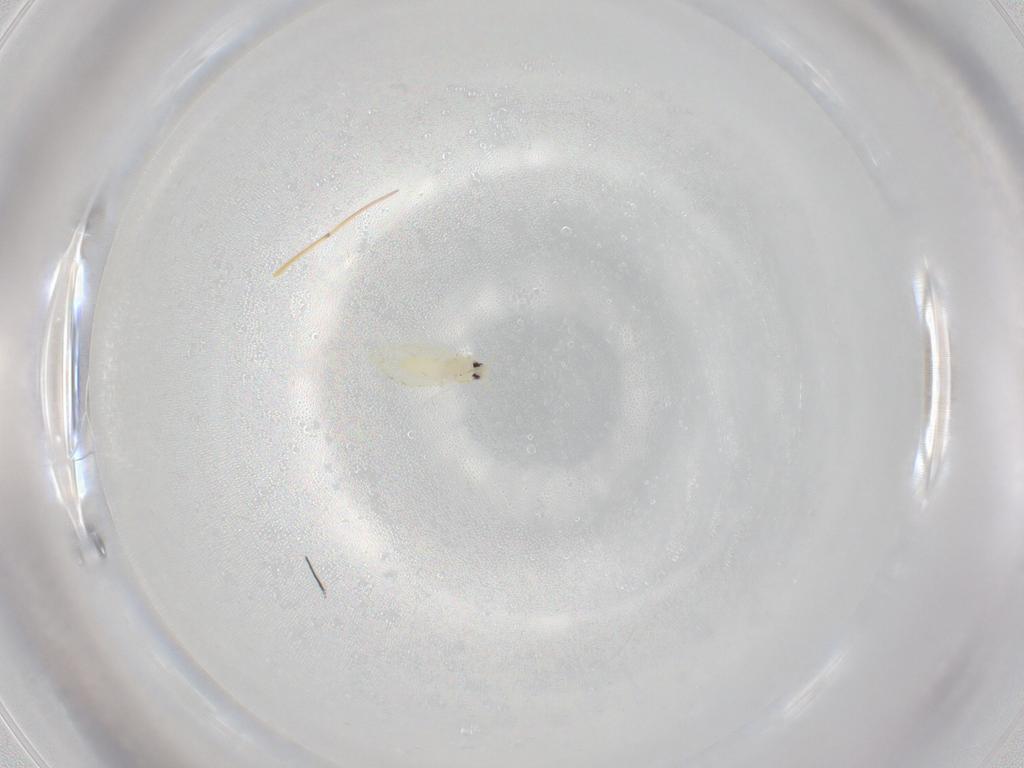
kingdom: Animalia
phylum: Arthropoda
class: Insecta
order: Hemiptera
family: Aleyrodidae
